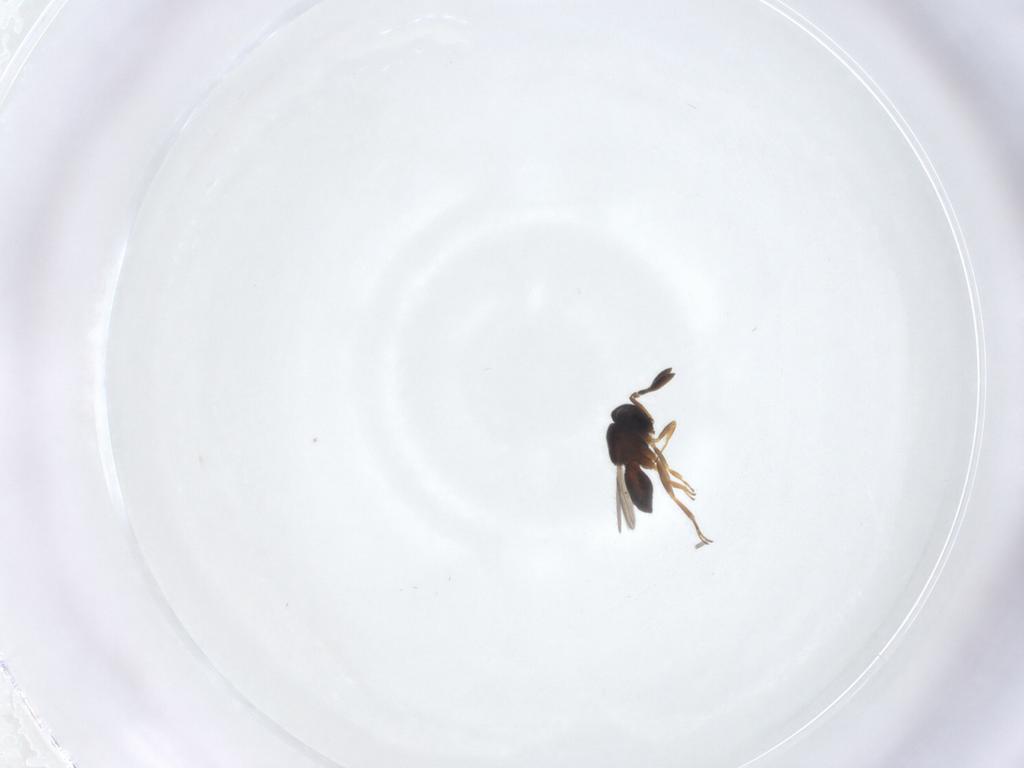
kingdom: Animalia
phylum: Arthropoda
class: Insecta
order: Hymenoptera
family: Scelionidae
